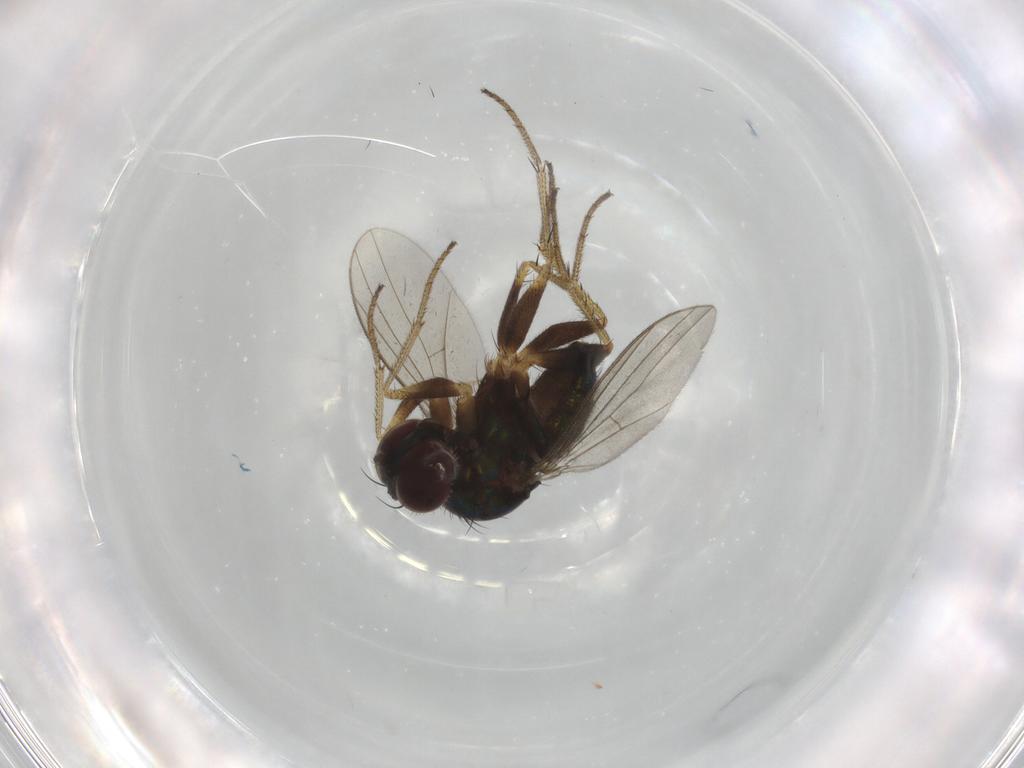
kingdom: Animalia
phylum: Arthropoda
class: Insecta
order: Diptera
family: Chironomidae
